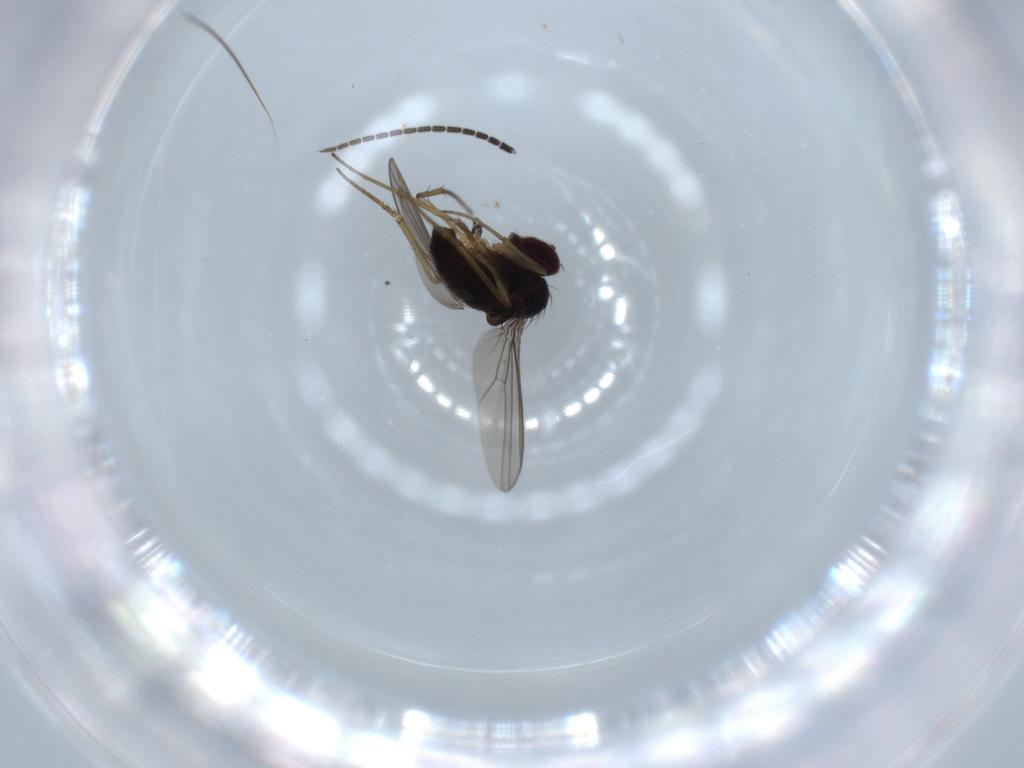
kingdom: Animalia
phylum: Arthropoda
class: Insecta
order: Diptera
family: Dolichopodidae
